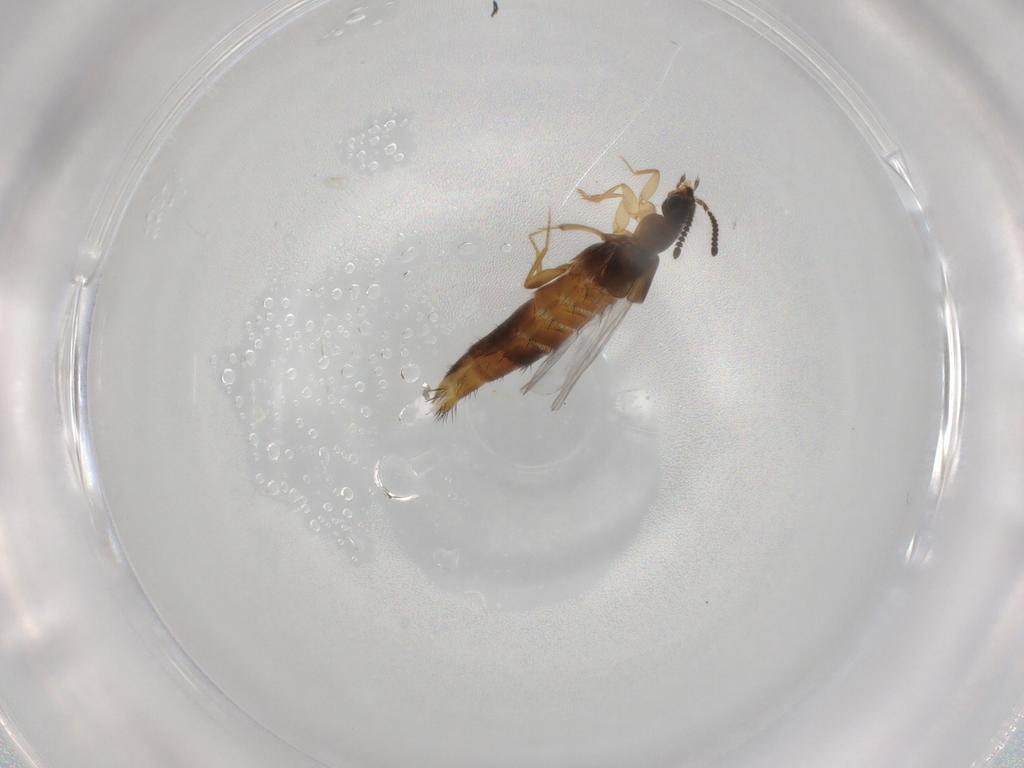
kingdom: Animalia
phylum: Arthropoda
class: Insecta
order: Coleoptera
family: Staphylinidae
